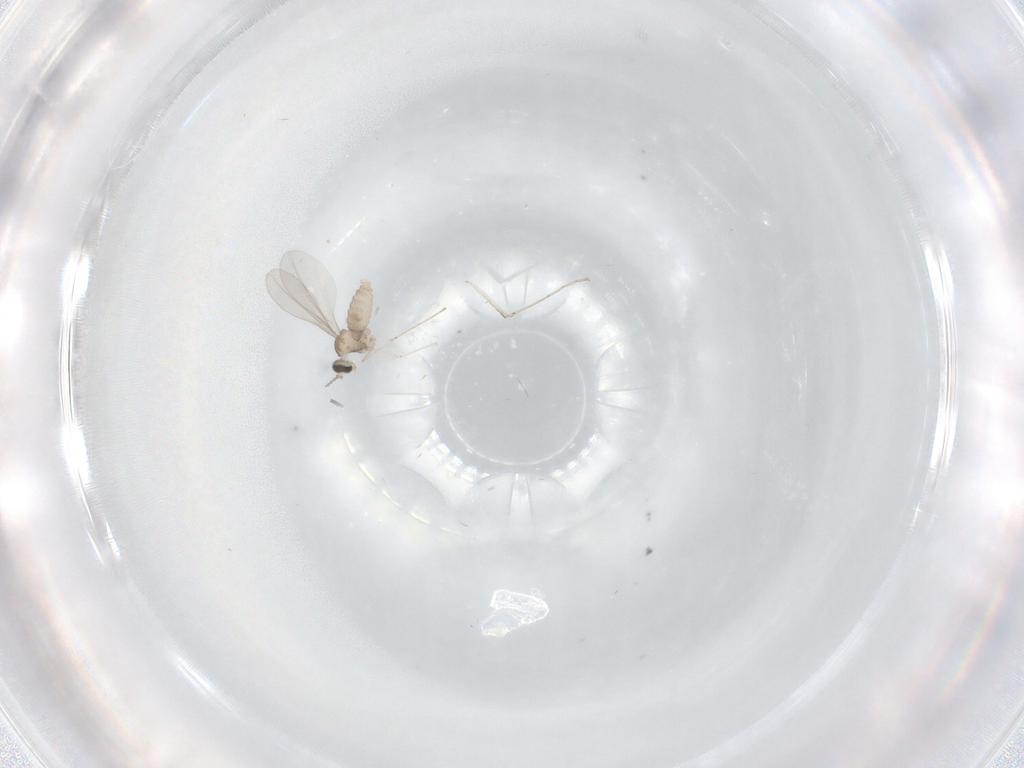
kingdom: Animalia
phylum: Arthropoda
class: Insecta
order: Diptera
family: Cecidomyiidae
